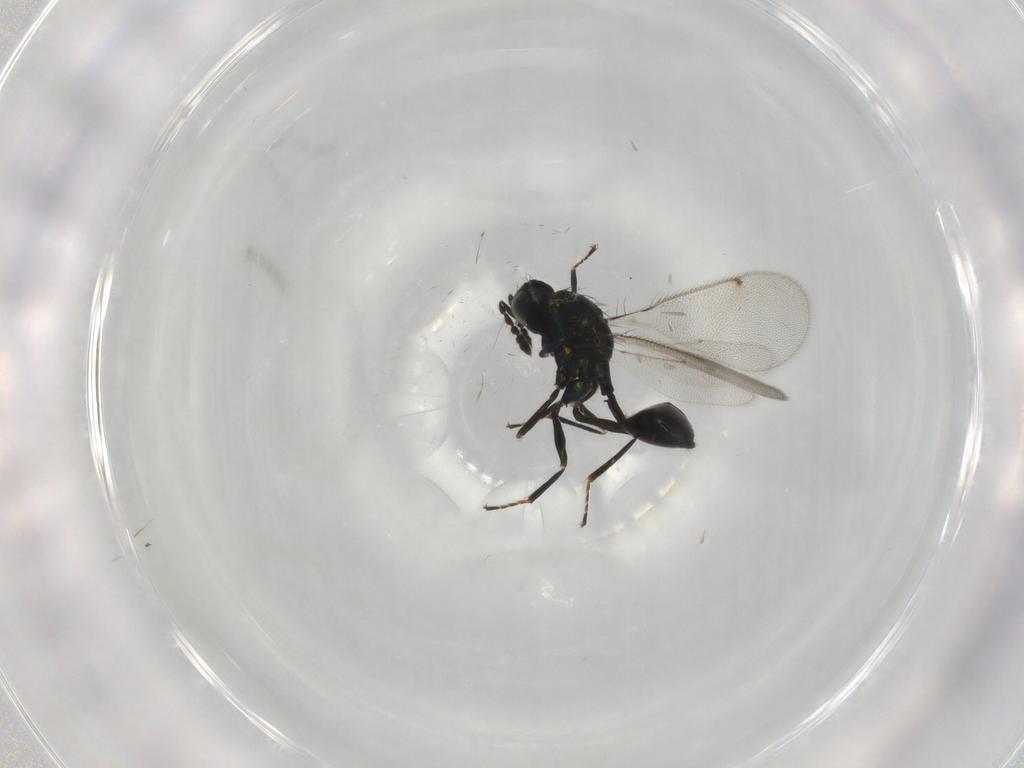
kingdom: Animalia
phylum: Arthropoda
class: Insecta
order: Hymenoptera
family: Eulophidae
